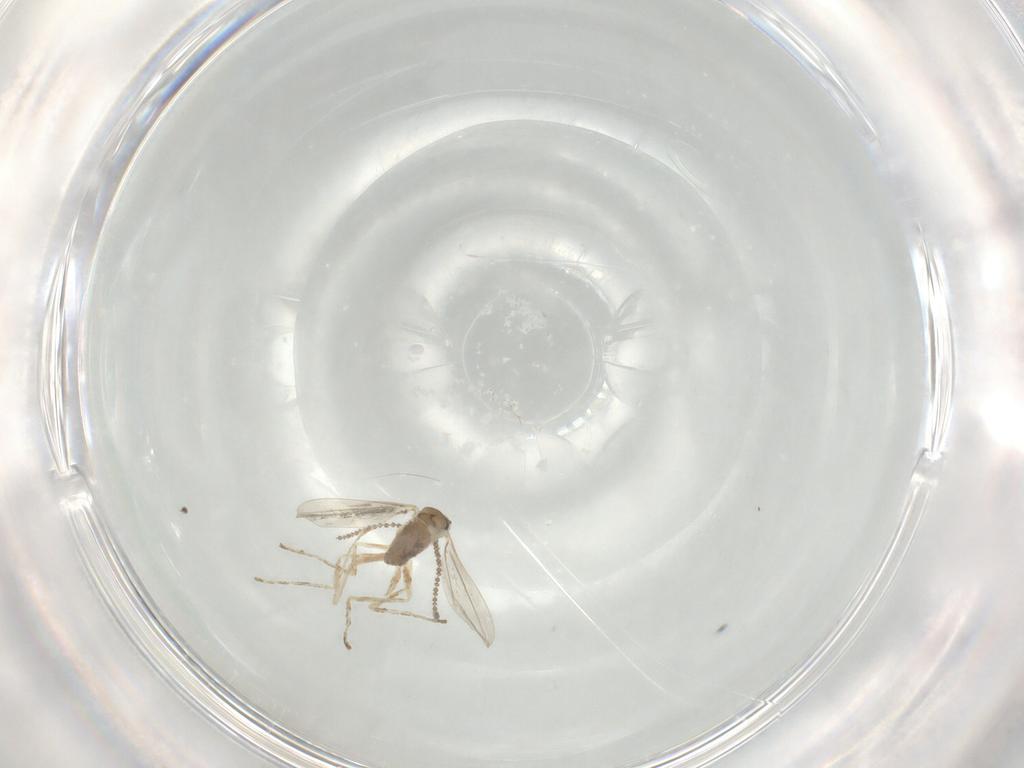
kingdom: Animalia
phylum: Arthropoda
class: Insecta
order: Diptera
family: Cecidomyiidae
